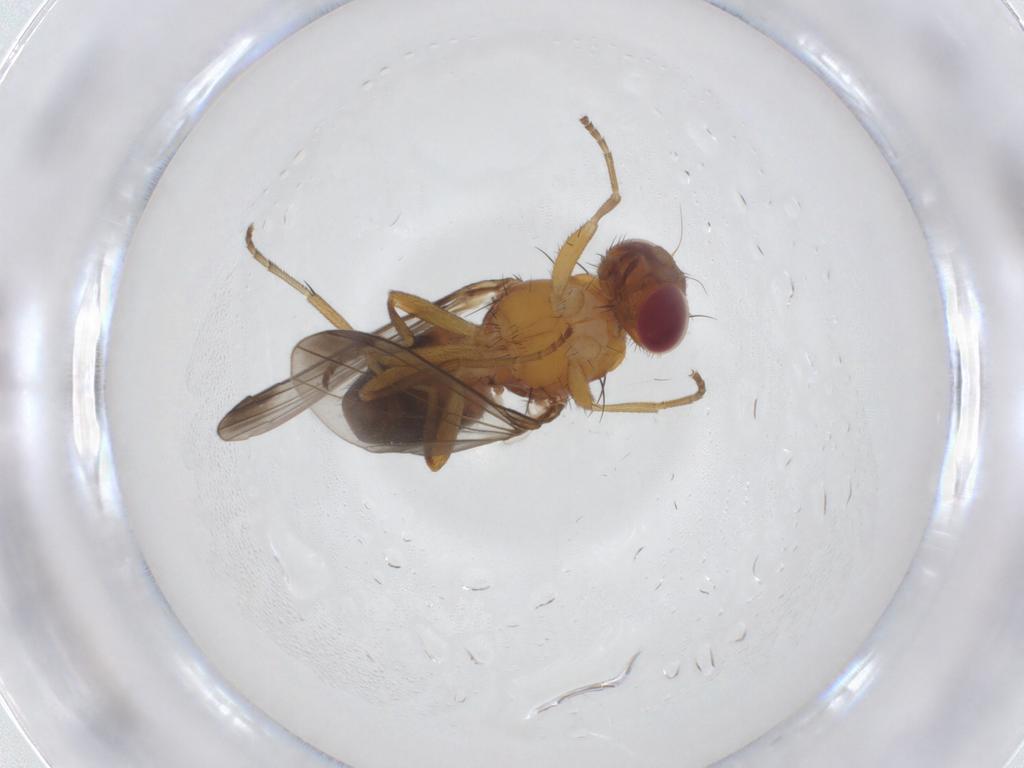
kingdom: Animalia
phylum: Arthropoda
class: Insecta
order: Diptera
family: Piophilidae
